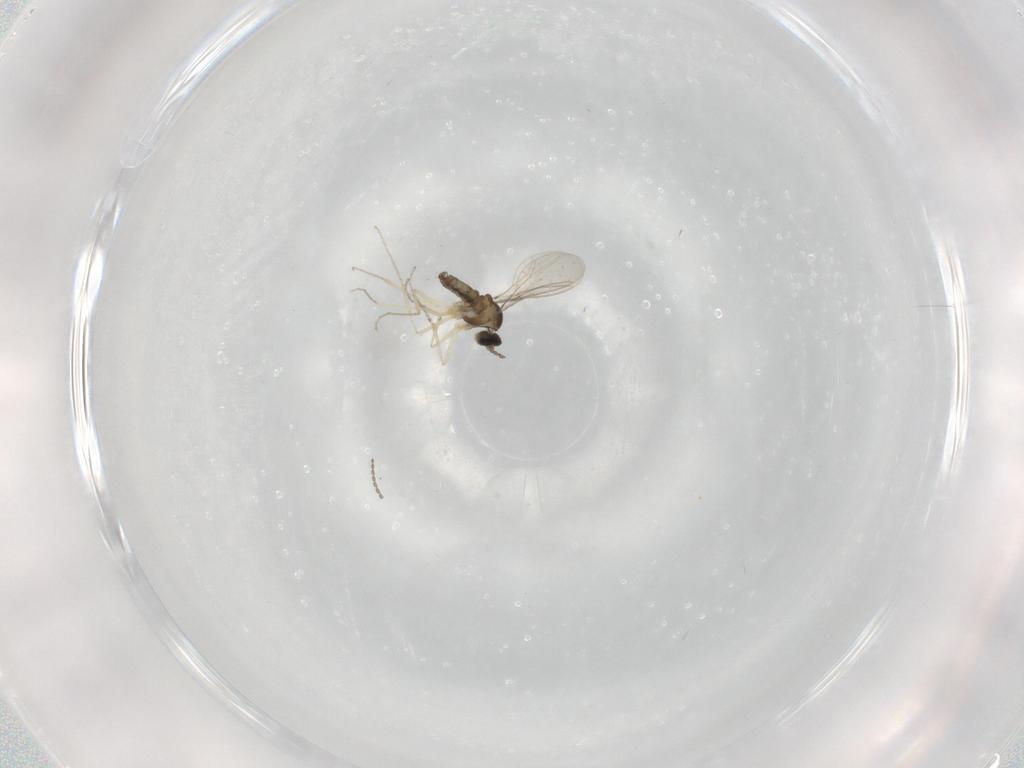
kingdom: Animalia
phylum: Arthropoda
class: Insecta
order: Diptera
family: Cecidomyiidae
